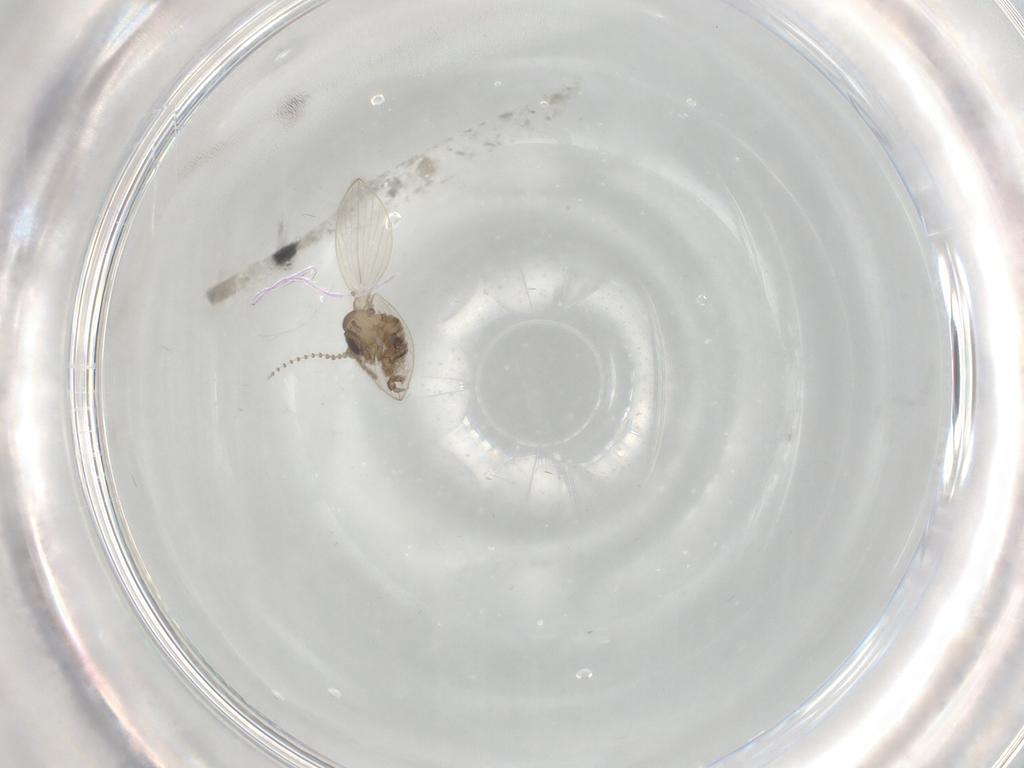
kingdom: Animalia
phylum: Arthropoda
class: Insecta
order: Diptera
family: Psychodidae
